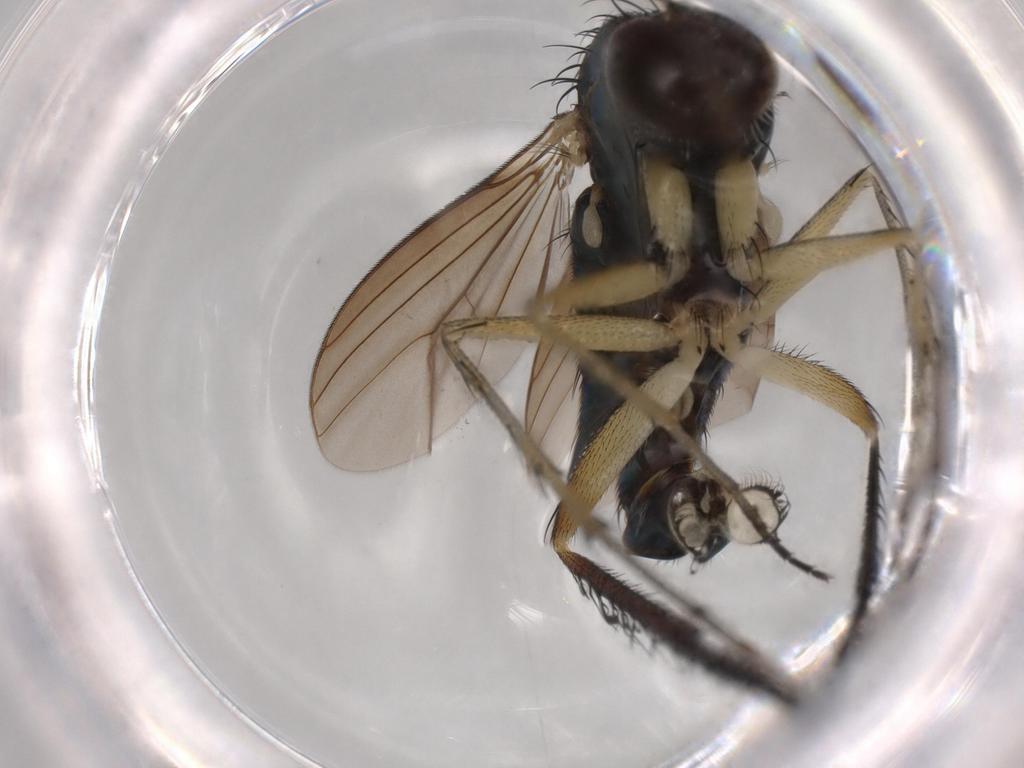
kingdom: Animalia
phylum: Arthropoda
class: Insecta
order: Diptera
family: Dolichopodidae
